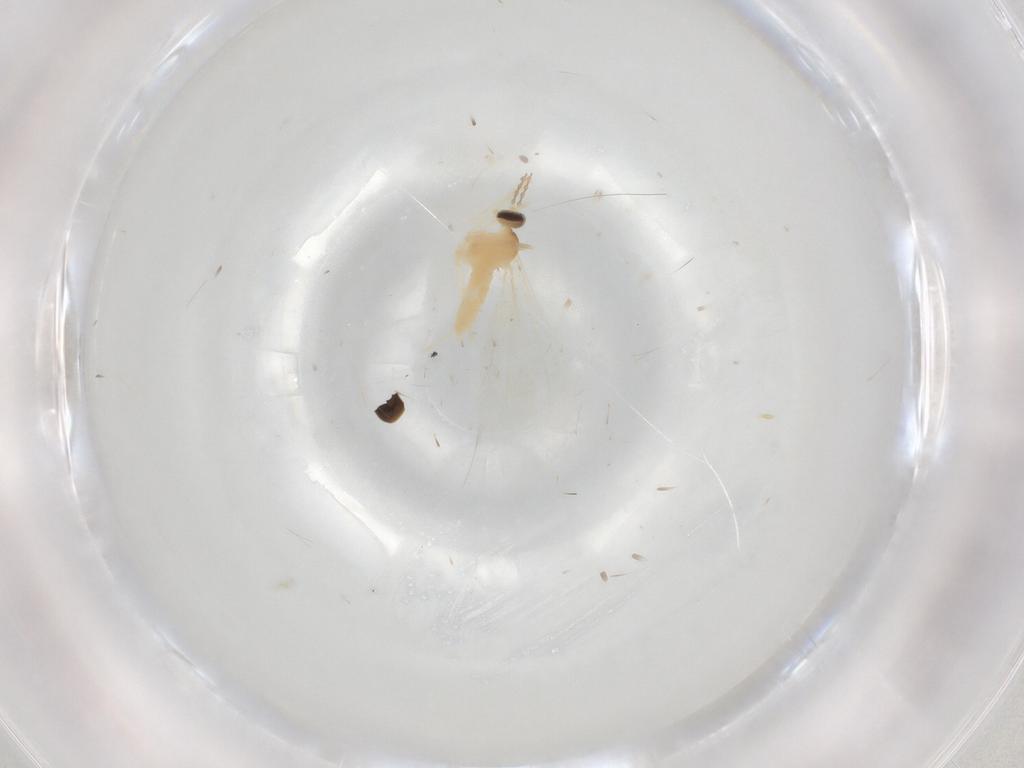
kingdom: Animalia
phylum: Arthropoda
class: Insecta
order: Diptera
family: Cecidomyiidae
